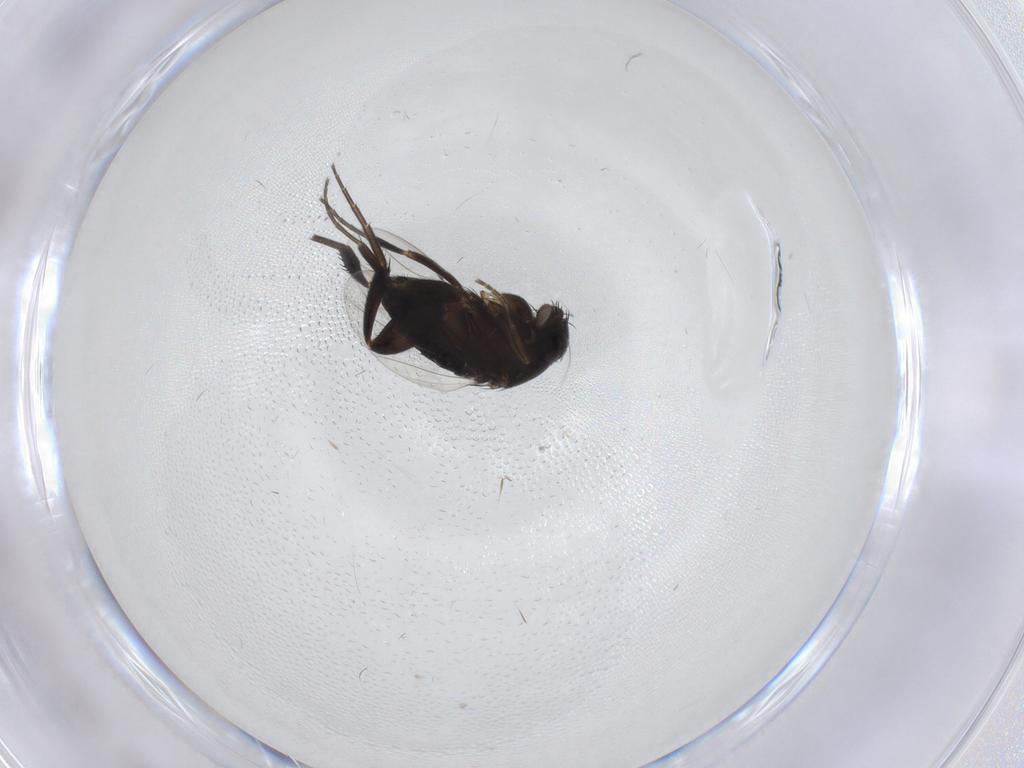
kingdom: Animalia
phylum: Arthropoda
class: Insecta
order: Diptera
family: Phoridae
